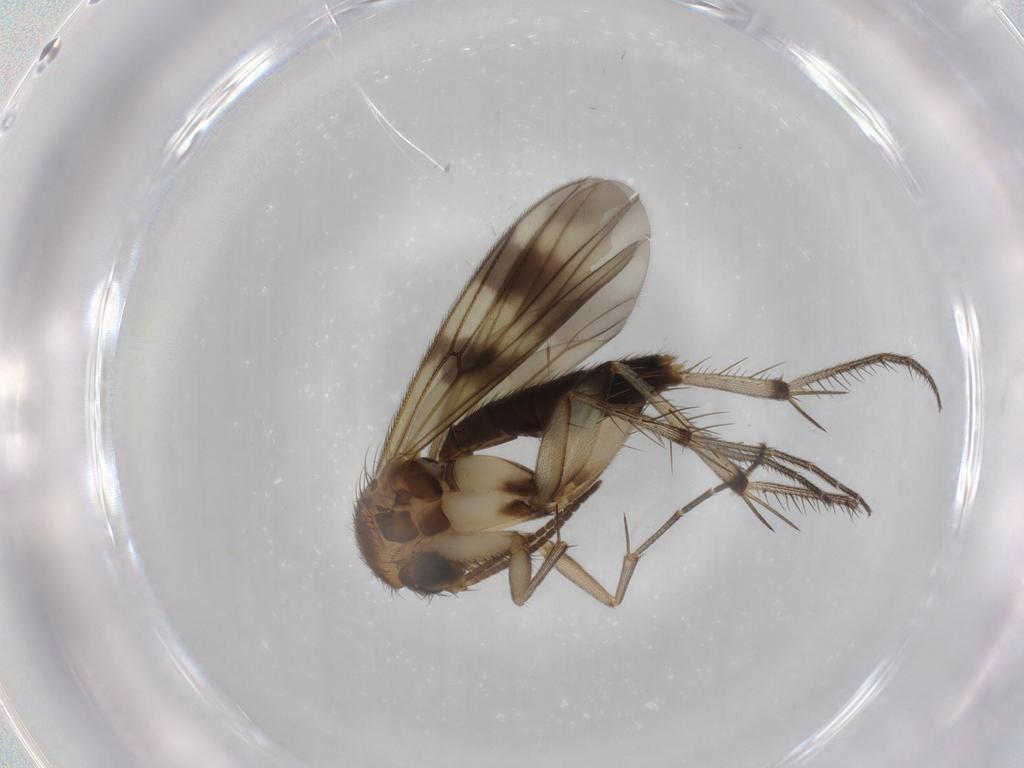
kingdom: Animalia
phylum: Arthropoda
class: Insecta
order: Diptera
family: Mycetophilidae
